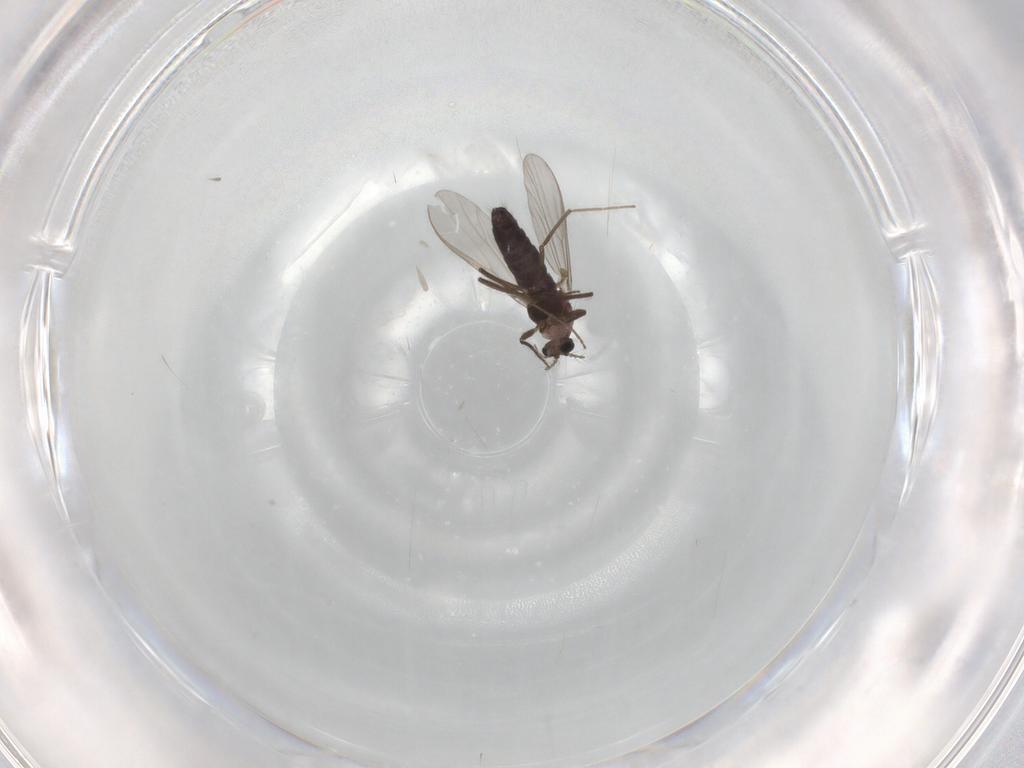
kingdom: Animalia
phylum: Arthropoda
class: Insecta
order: Diptera
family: Chironomidae
